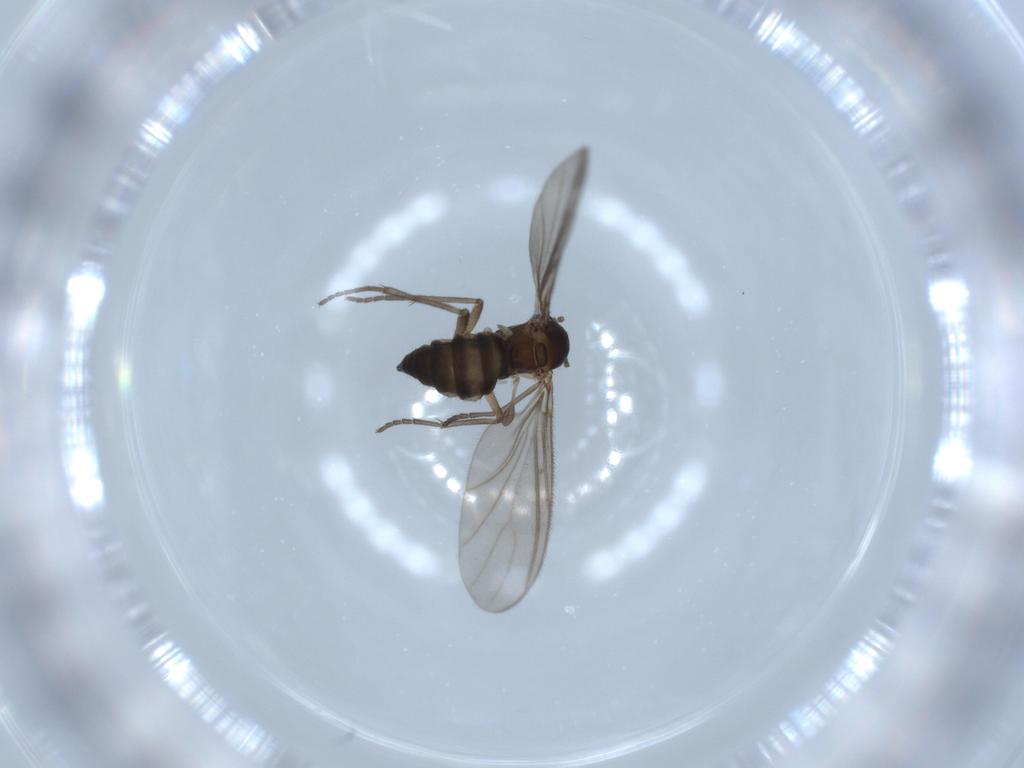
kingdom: Animalia
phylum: Arthropoda
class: Insecta
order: Diptera
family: Sciaridae
